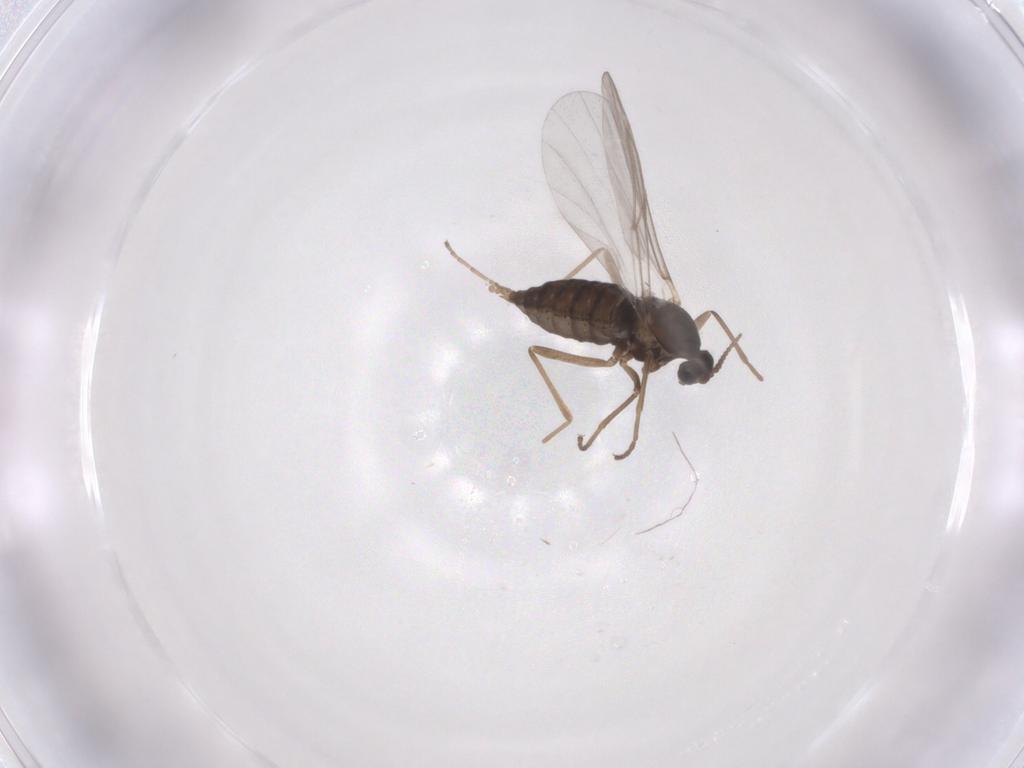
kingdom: Animalia
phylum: Arthropoda
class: Insecta
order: Diptera
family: Cecidomyiidae
